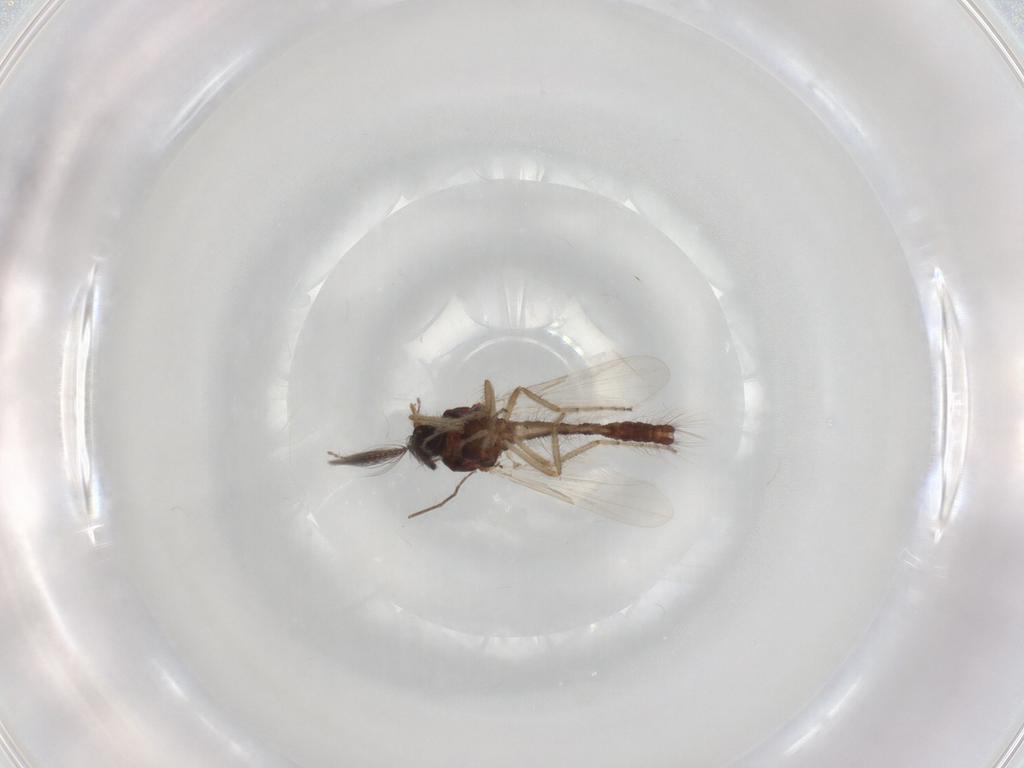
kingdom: Animalia
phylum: Arthropoda
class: Insecta
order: Diptera
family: Ceratopogonidae
